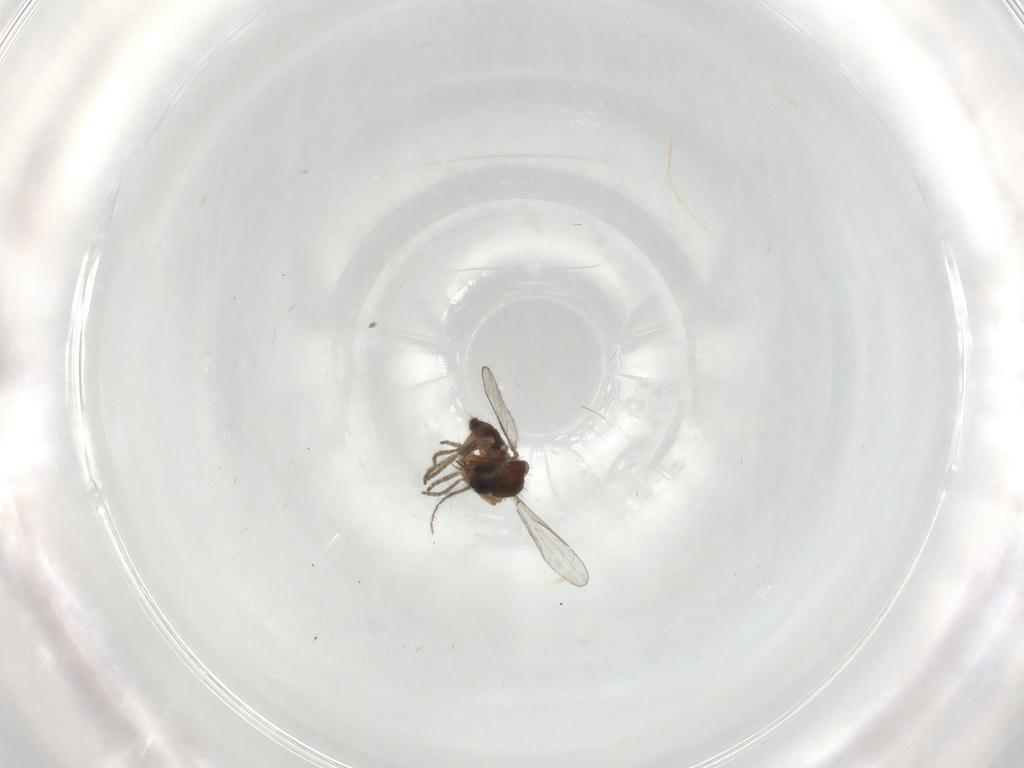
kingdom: Animalia
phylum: Arthropoda
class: Insecta
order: Diptera
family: Ceratopogonidae
